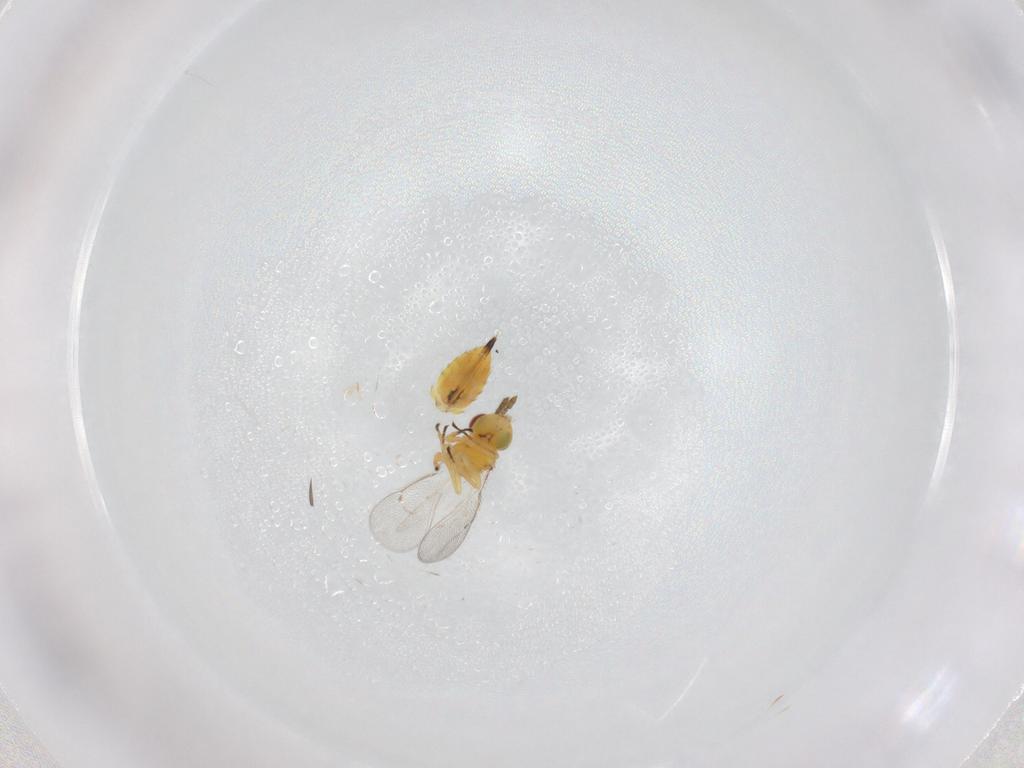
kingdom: Animalia
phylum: Arthropoda
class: Insecta
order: Hymenoptera
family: Eulophidae
